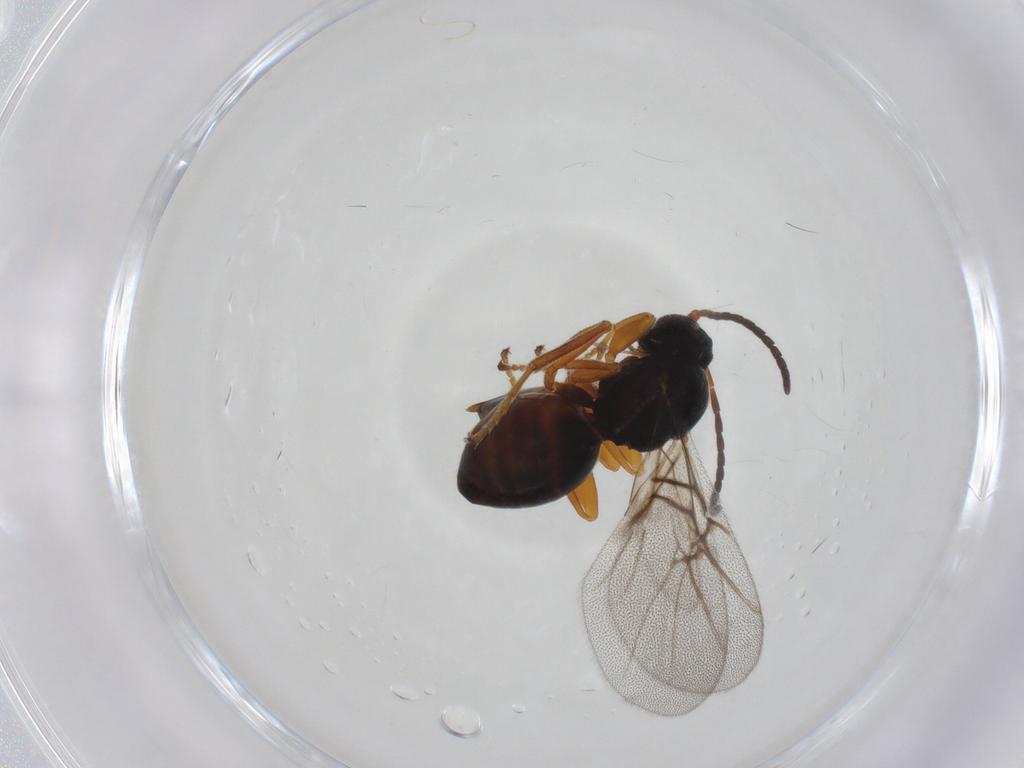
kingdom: Animalia
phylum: Arthropoda
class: Insecta
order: Hymenoptera
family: Cynipidae
